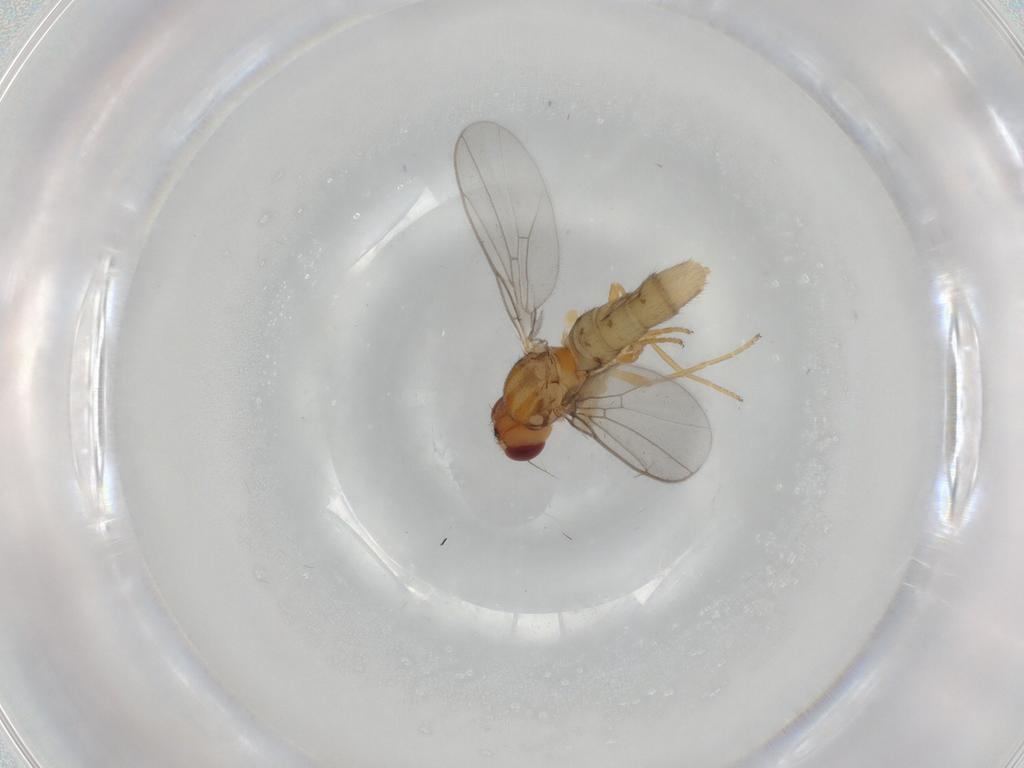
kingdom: Animalia
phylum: Arthropoda
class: Insecta
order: Diptera
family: Chloropidae
